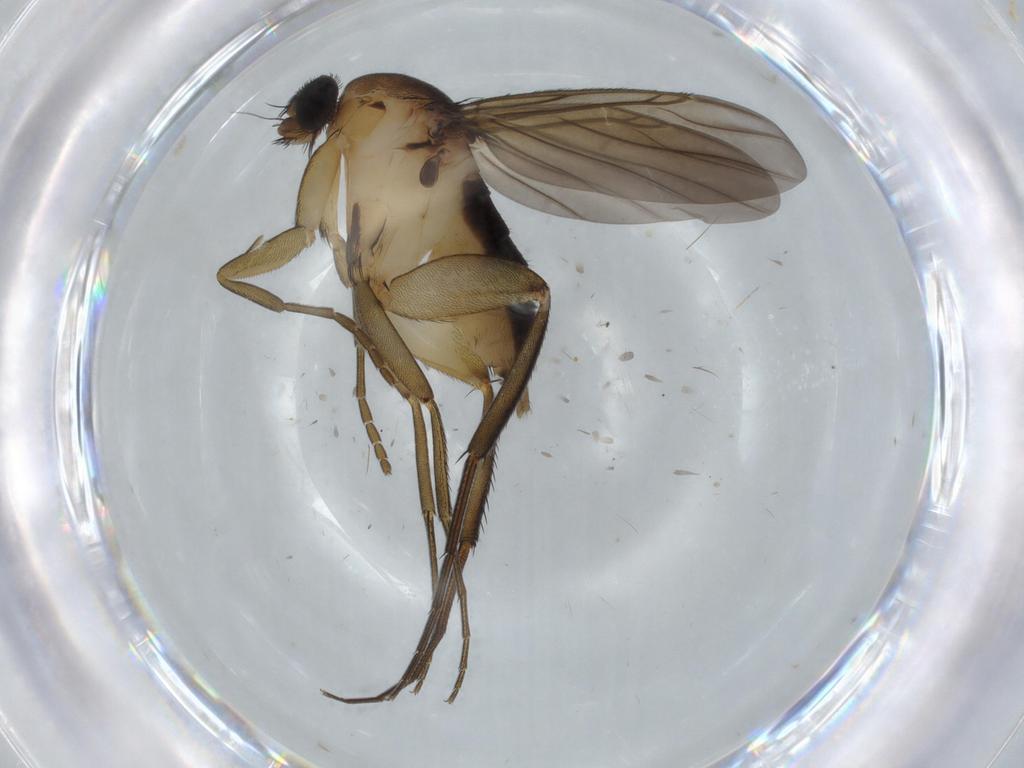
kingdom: Animalia
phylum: Arthropoda
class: Insecta
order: Diptera
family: Phoridae
